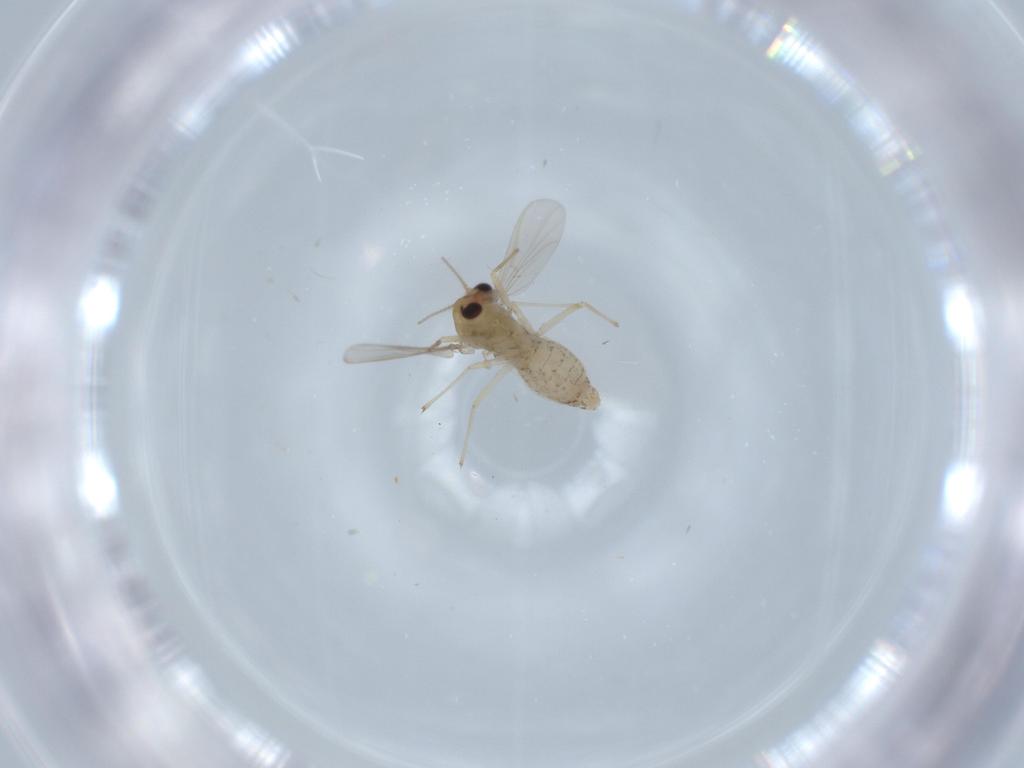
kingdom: Animalia
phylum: Arthropoda
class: Insecta
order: Diptera
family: Chironomidae
